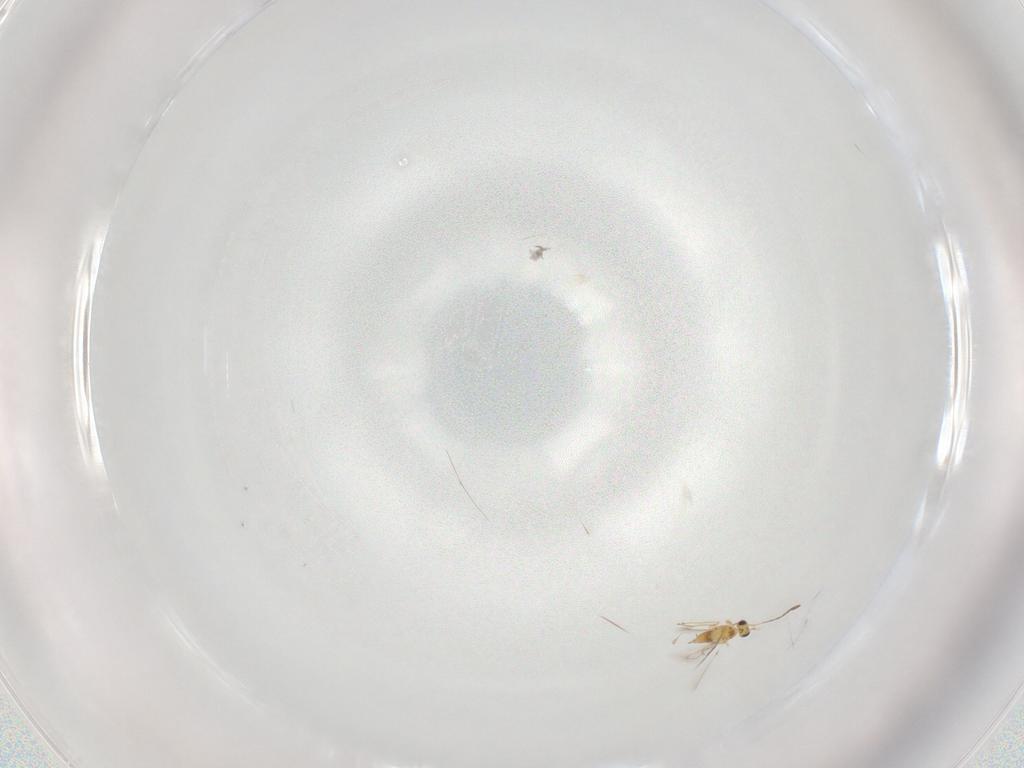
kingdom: Animalia
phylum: Arthropoda
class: Insecta
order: Hymenoptera
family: Mymaridae
